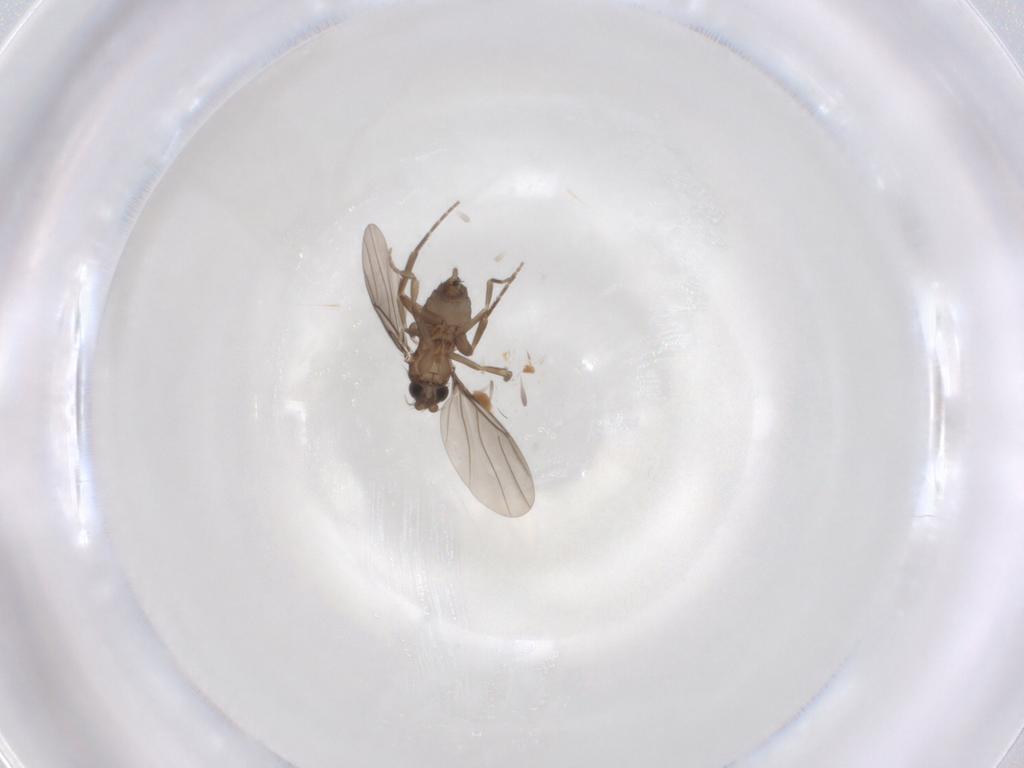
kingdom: Animalia
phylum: Arthropoda
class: Insecta
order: Diptera
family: Cecidomyiidae
